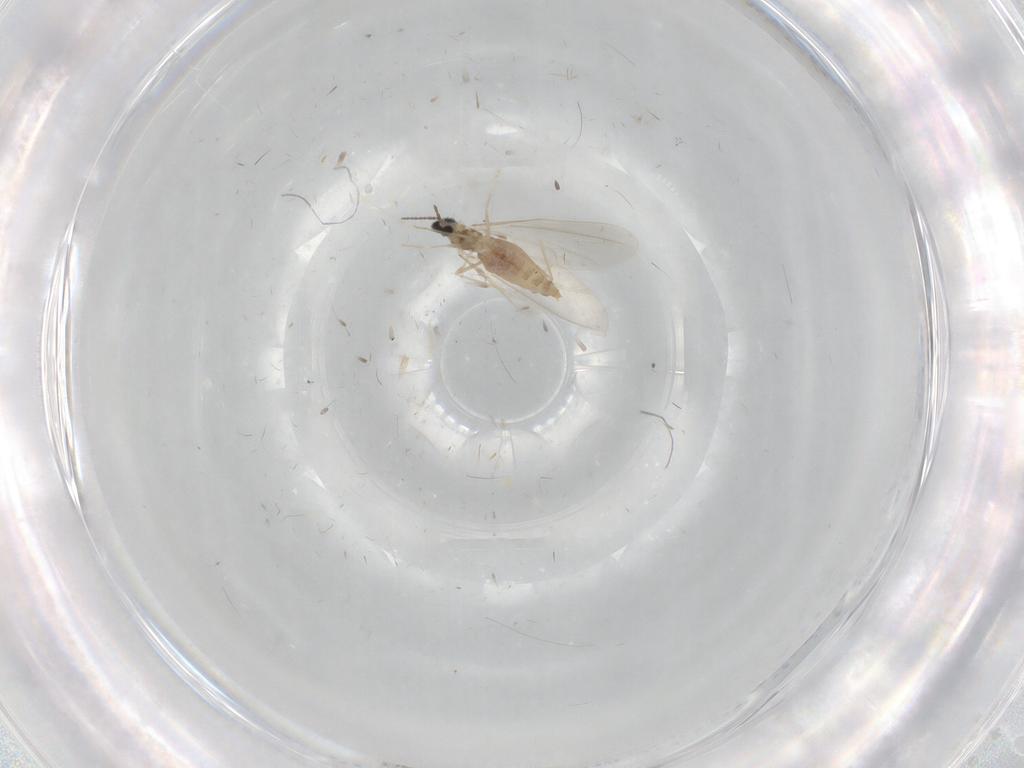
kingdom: Animalia
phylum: Arthropoda
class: Insecta
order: Diptera
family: Cecidomyiidae
